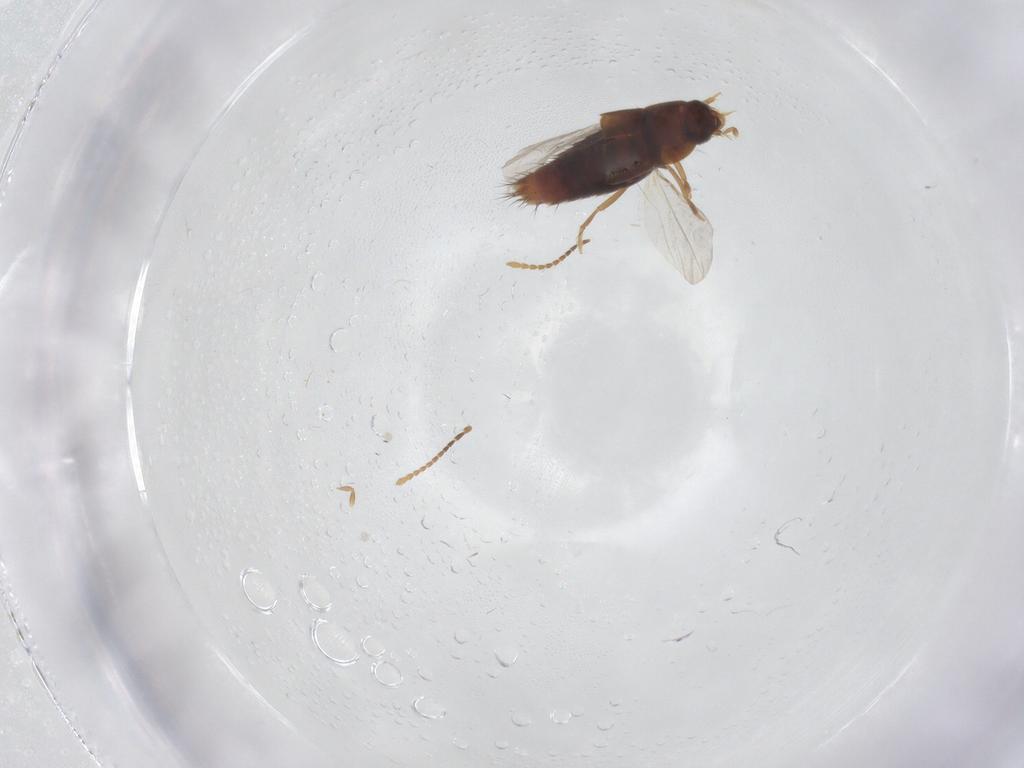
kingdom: Animalia
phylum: Arthropoda
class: Insecta
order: Coleoptera
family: Staphylinidae
